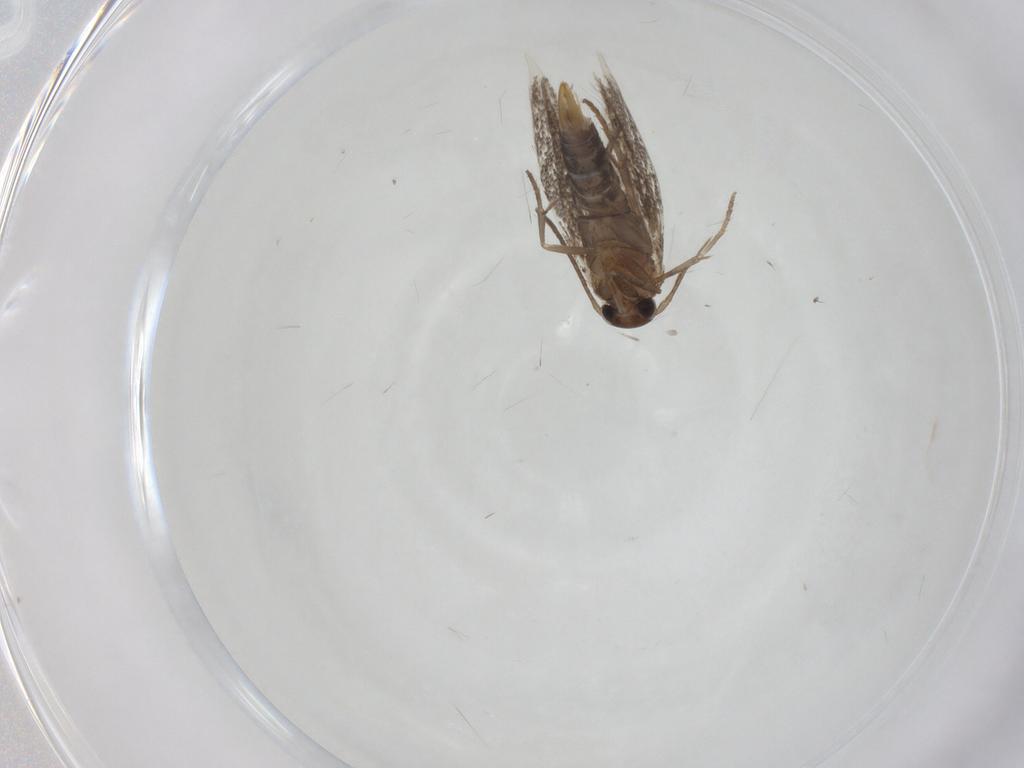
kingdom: Animalia
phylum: Arthropoda
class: Insecta
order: Lepidoptera
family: Elachistidae
